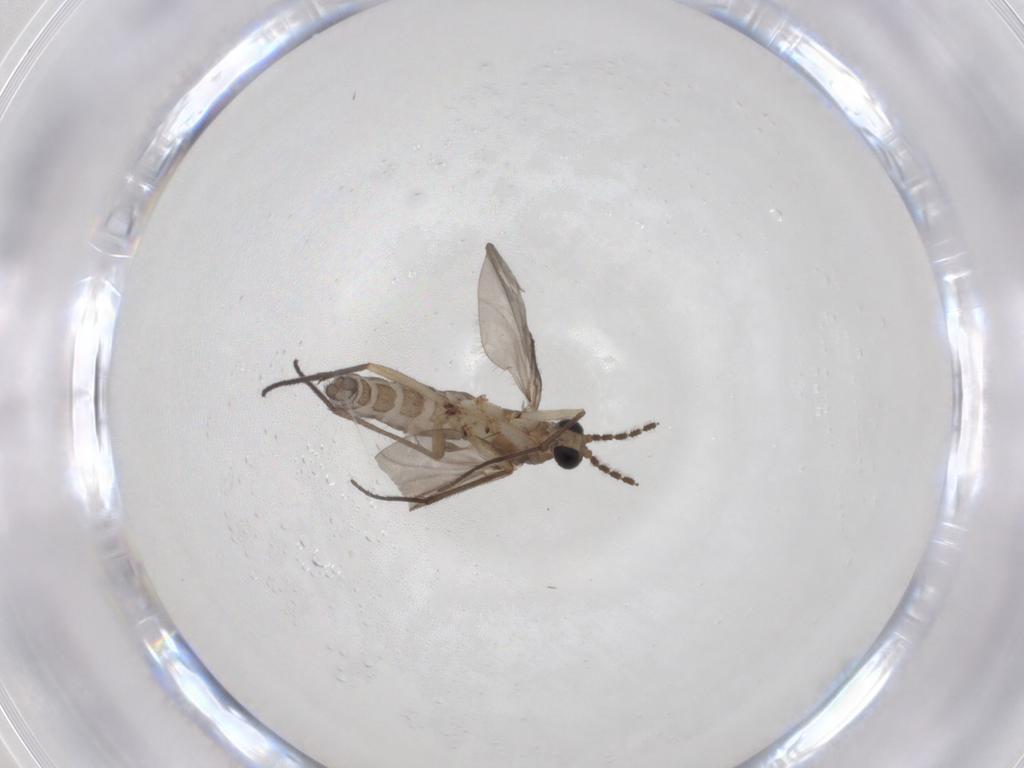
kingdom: Animalia
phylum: Arthropoda
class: Insecta
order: Diptera
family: Sciaridae
